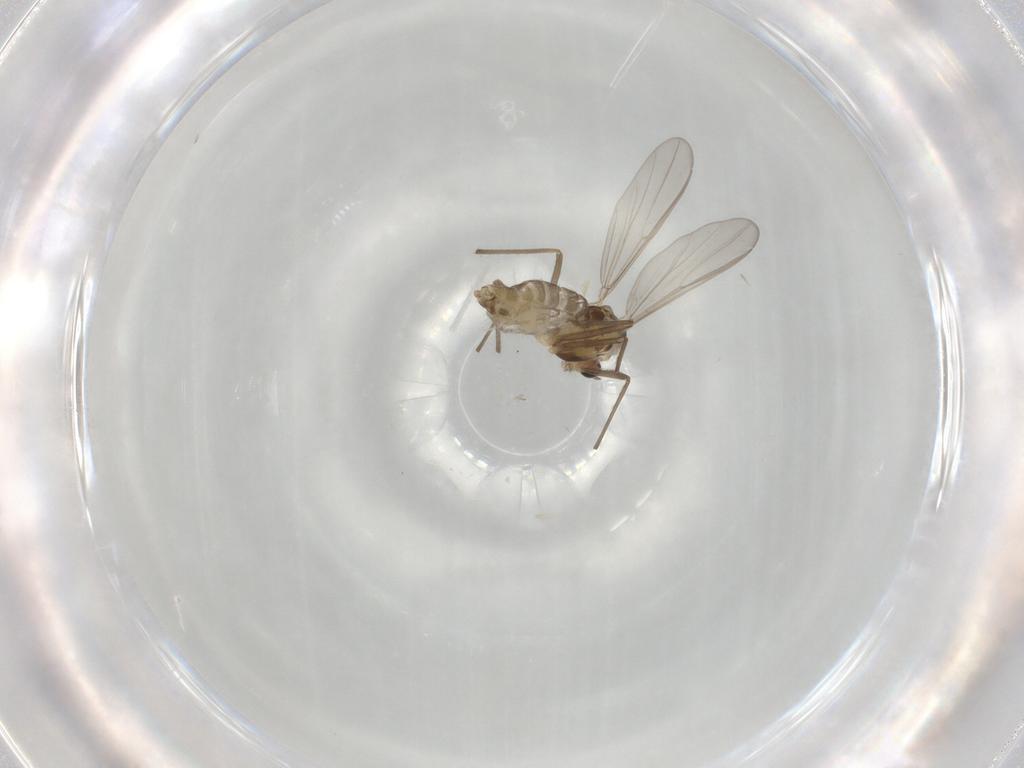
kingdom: Animalia
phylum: Arthropoda
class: Insecta
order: Diptera
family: Chironomidae
